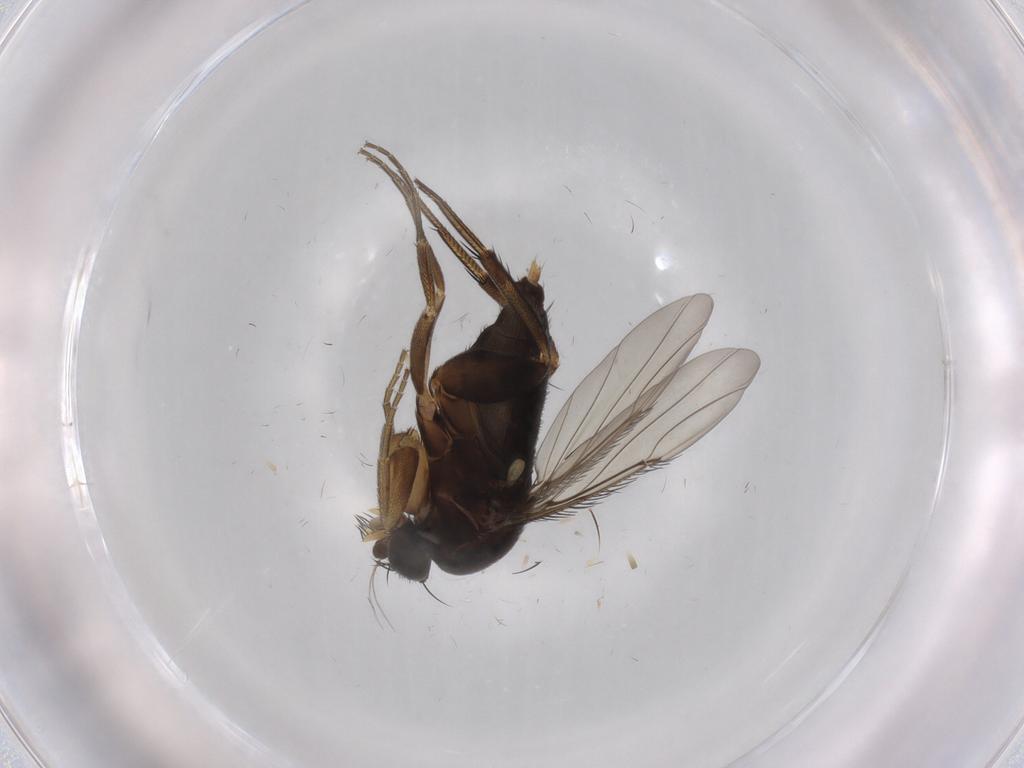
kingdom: Animalia
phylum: Arthropoda
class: Insecta
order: Diptera
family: Phoridae
